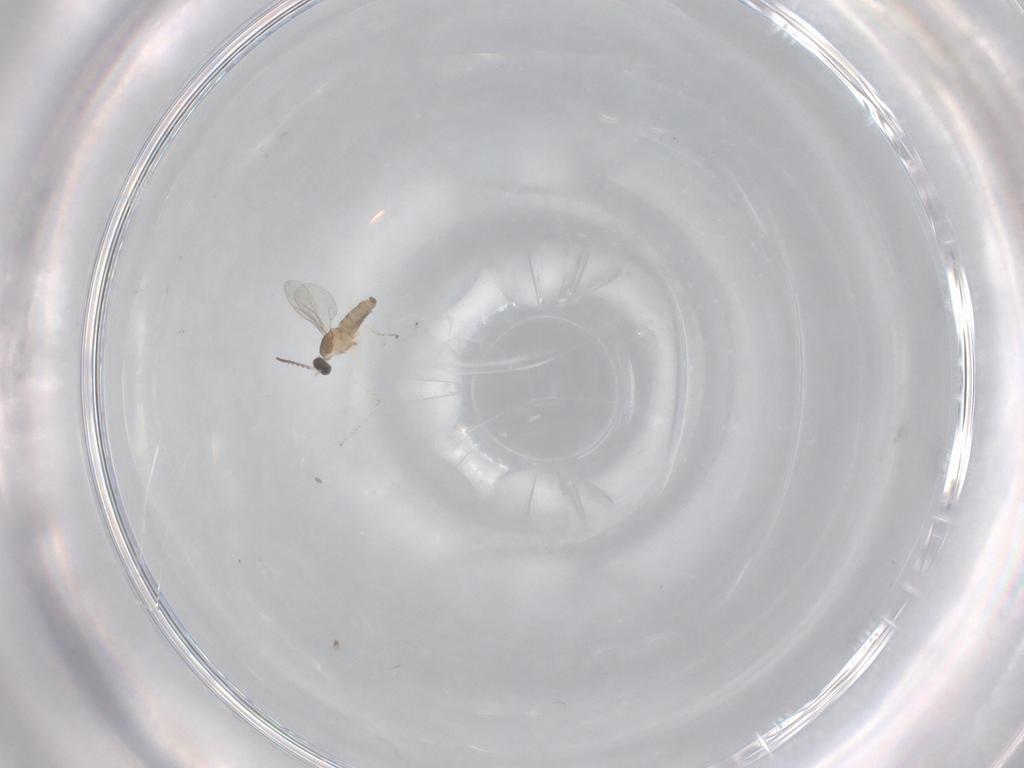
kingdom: Animalia
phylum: Arthropoda
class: Insecta
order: Diptera
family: Cecidomyiidae
